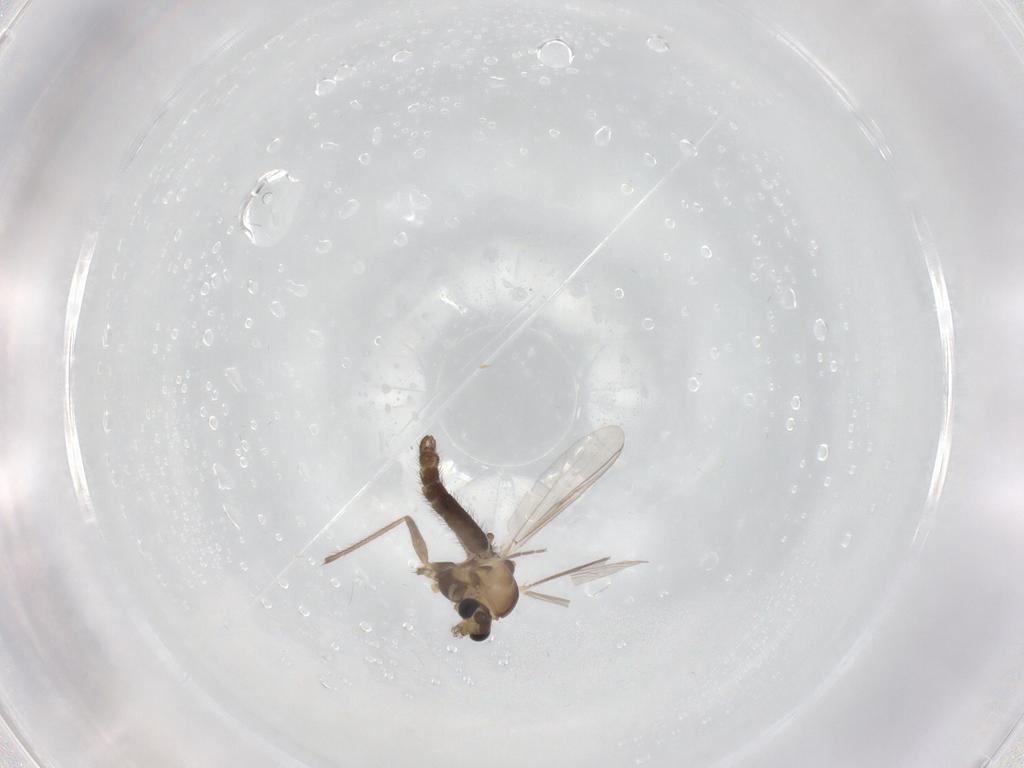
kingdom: Animalia
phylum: Arthropoda
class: Insecta
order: Diptera
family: Chironomidae
